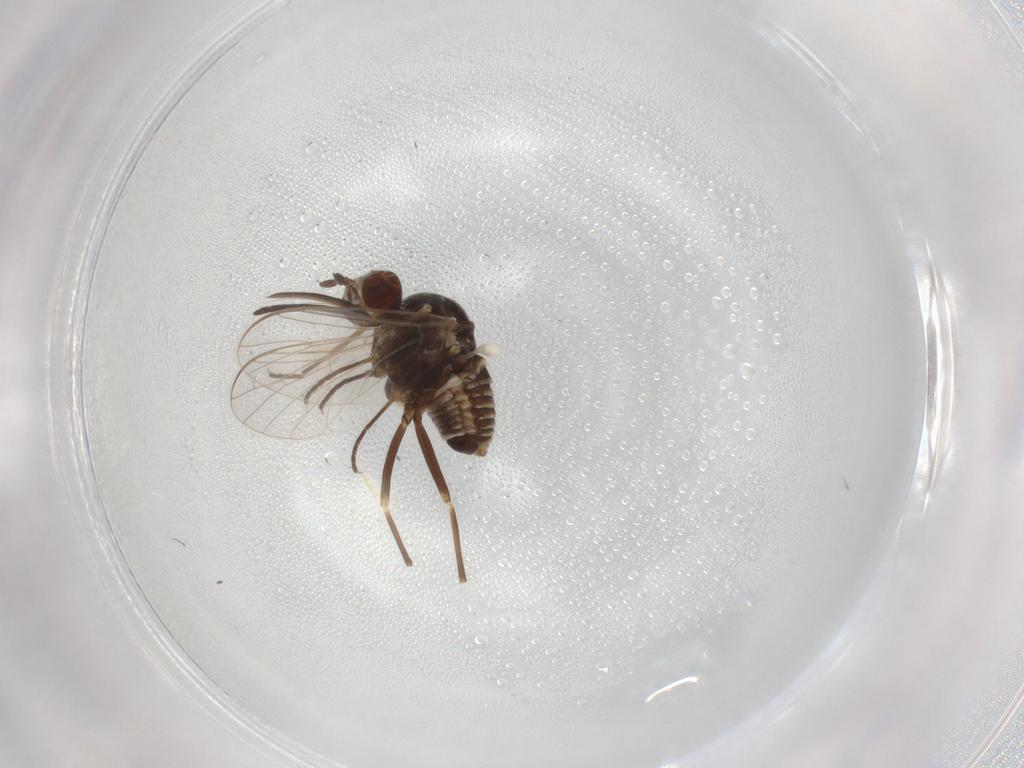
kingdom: Animalia
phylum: Arthropoda
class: Insecta
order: Diptera
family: Bombyliidae
